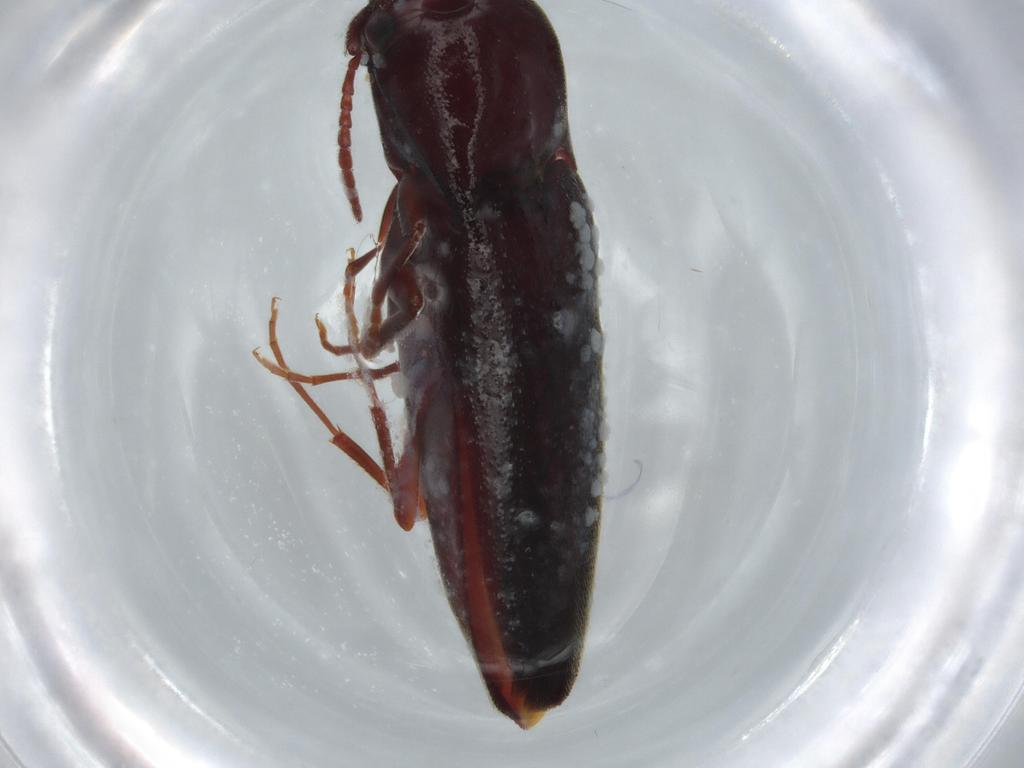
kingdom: Animalia
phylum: Arthropoda
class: Insecta
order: Coleoptera
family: Eucnemidae
